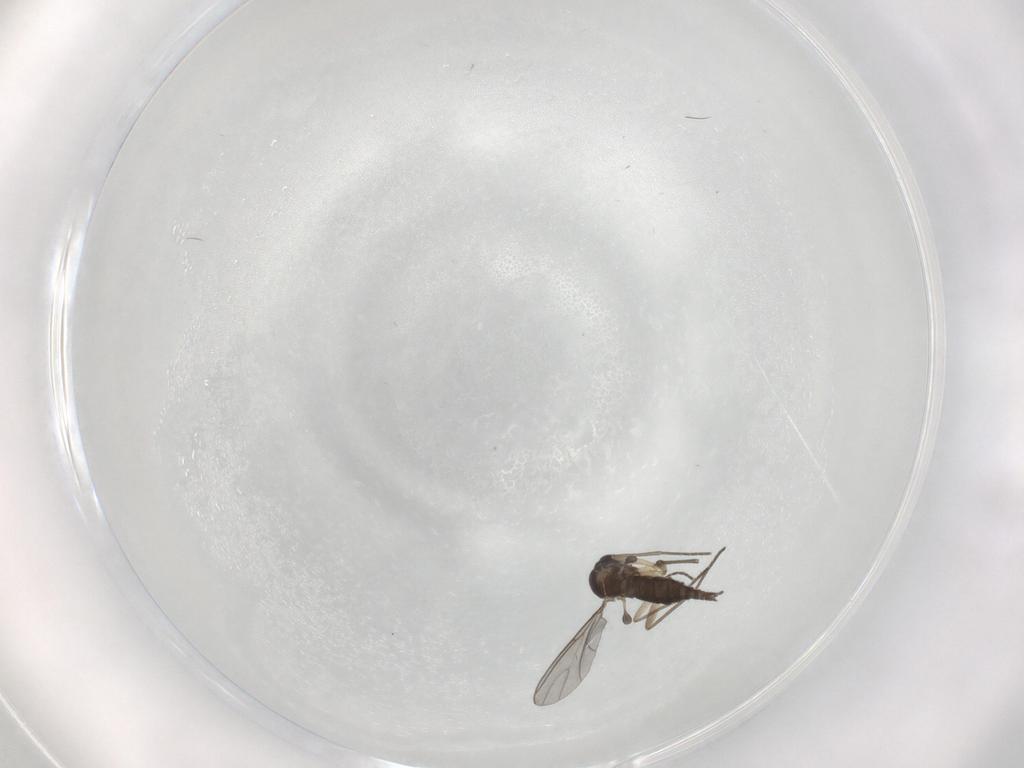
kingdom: Animalia
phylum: Arthropoda
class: Insecta
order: Diptera
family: Sciaridae
